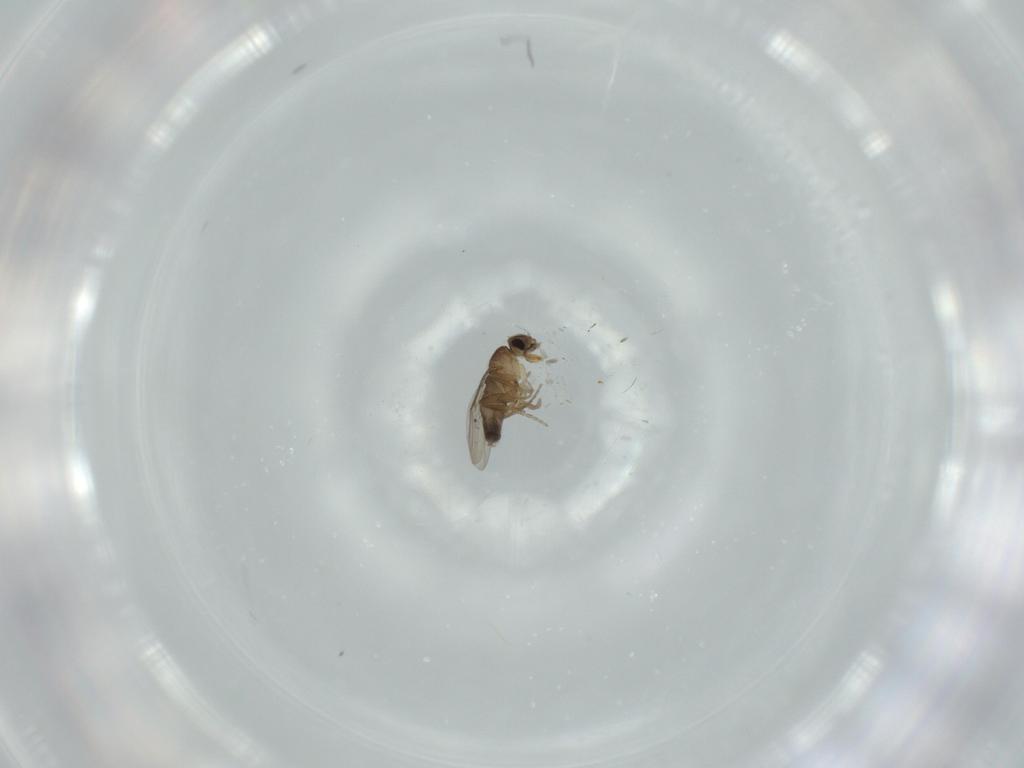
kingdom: Animalia
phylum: Arthropoda
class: Insecta
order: Diptera
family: Phoridae
